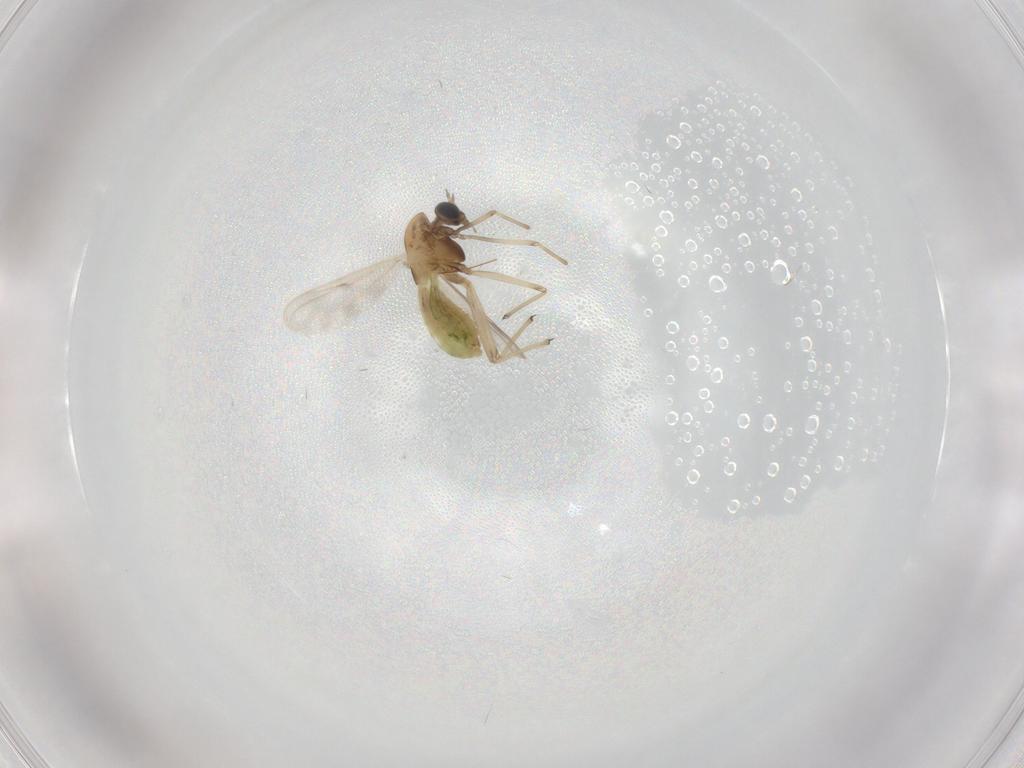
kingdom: Animalia
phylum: Arthropoda
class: Insecta
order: Diptera
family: Chironomidae
